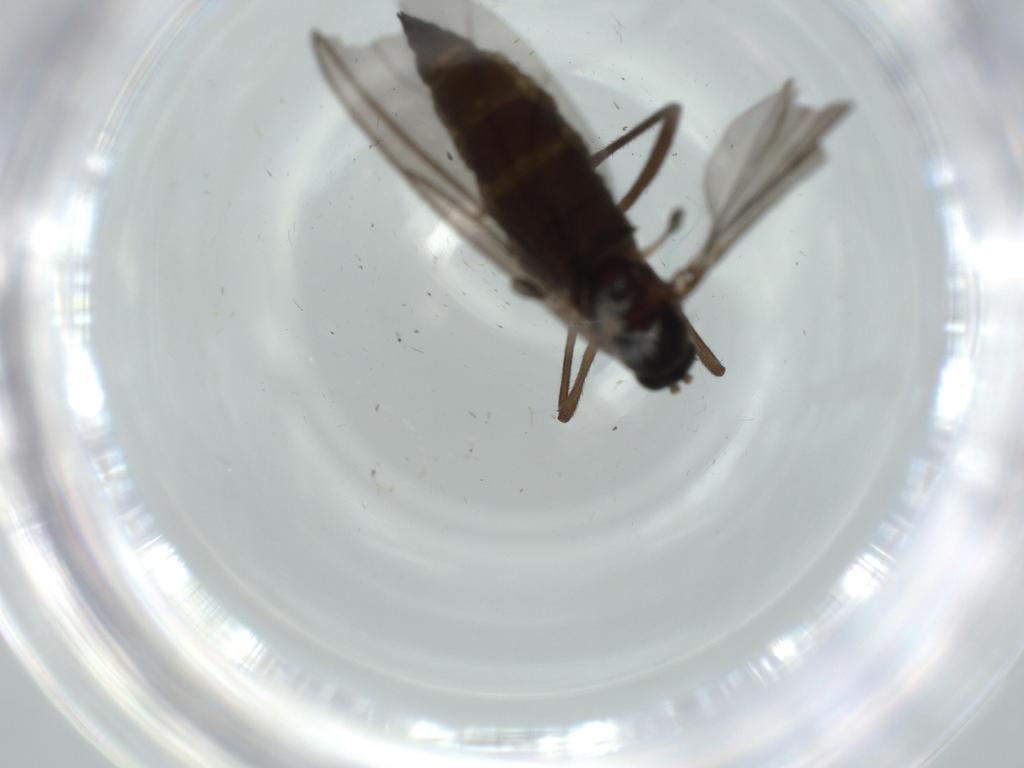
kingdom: Animalia
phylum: Arthropoda
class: Insecta
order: Diptera
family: Sciaridae
